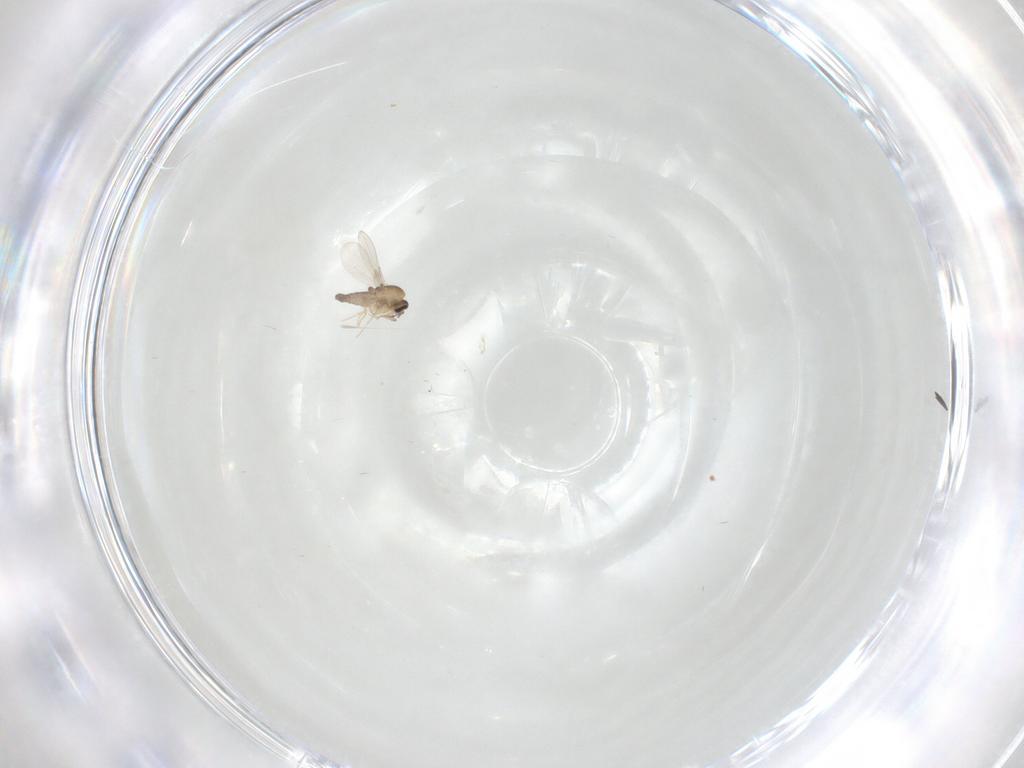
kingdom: Animalia
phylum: Arthropoda
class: Insecta
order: Diptera
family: Ceratopogonidae
